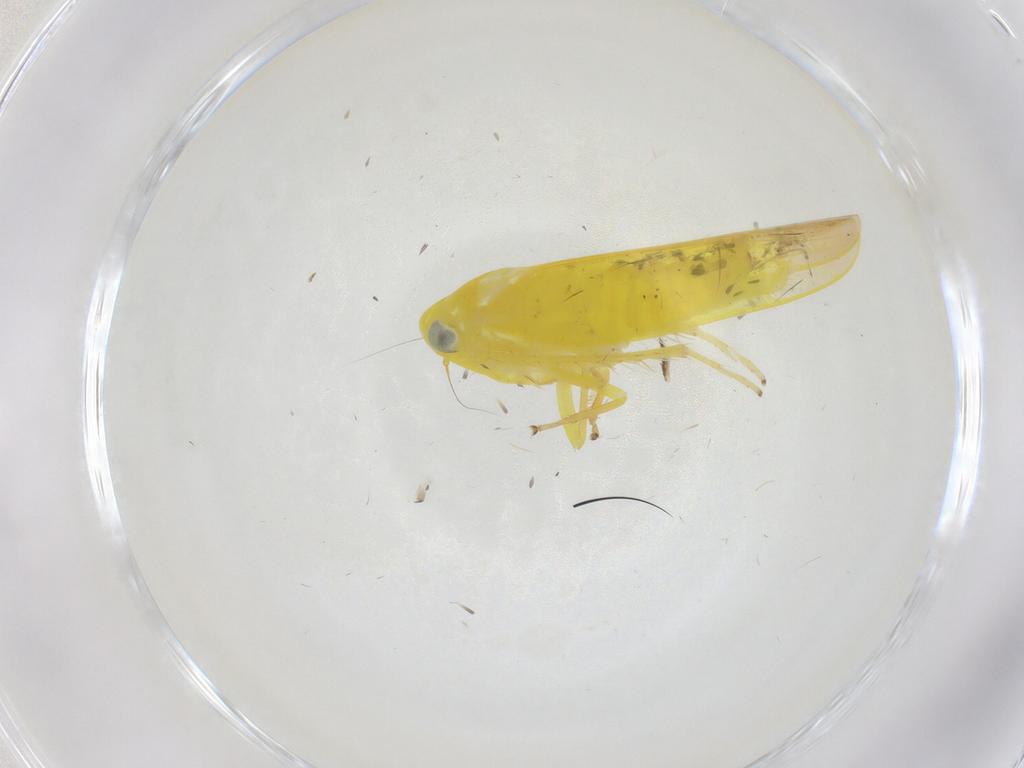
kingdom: Animalia
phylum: Arthropoda
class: Insecta
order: Hemiptera
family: Cicadellidae
